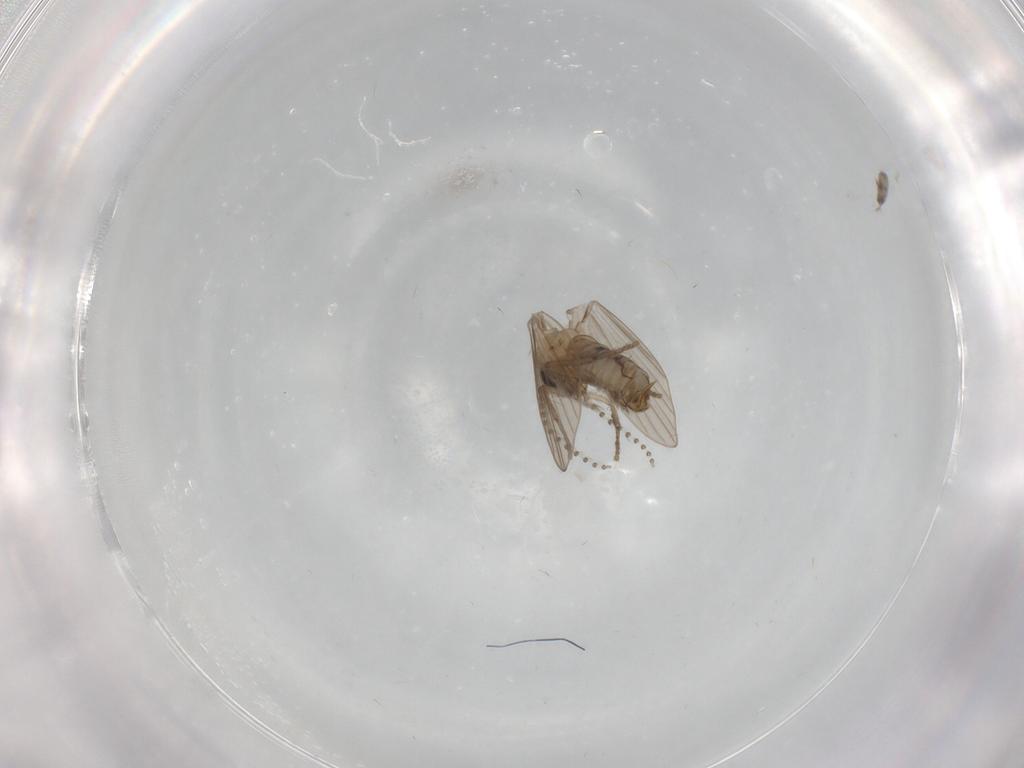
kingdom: Animalia
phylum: Arthropoda
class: Insecta
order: Diptera
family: Psychodidae
